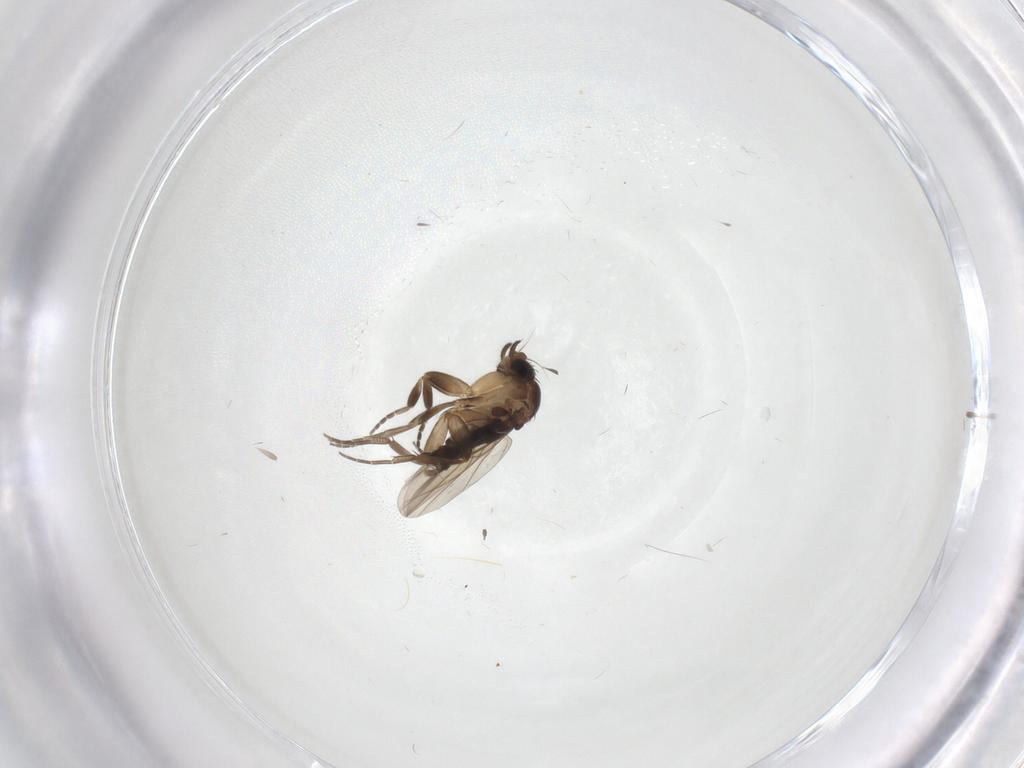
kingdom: Animalia
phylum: Arthropoda
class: Insecta
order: Diptera
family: Phoridae
